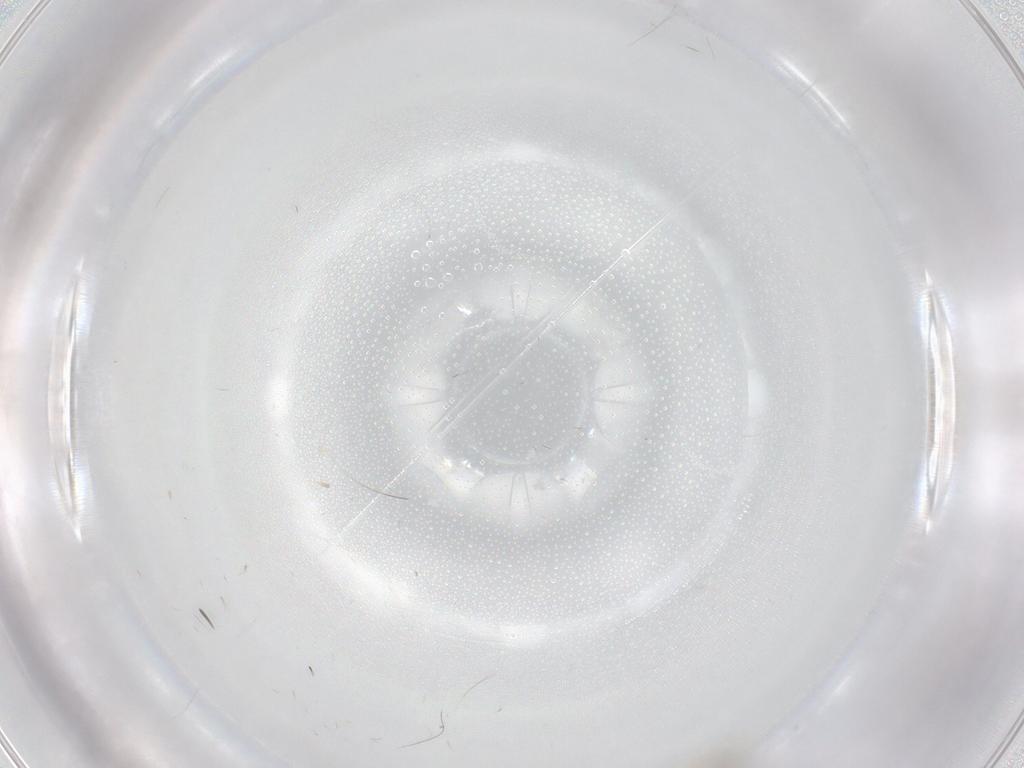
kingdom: Animalia
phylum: Arthropoda
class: Insecta
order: Diptera
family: Cecidomyiidae
